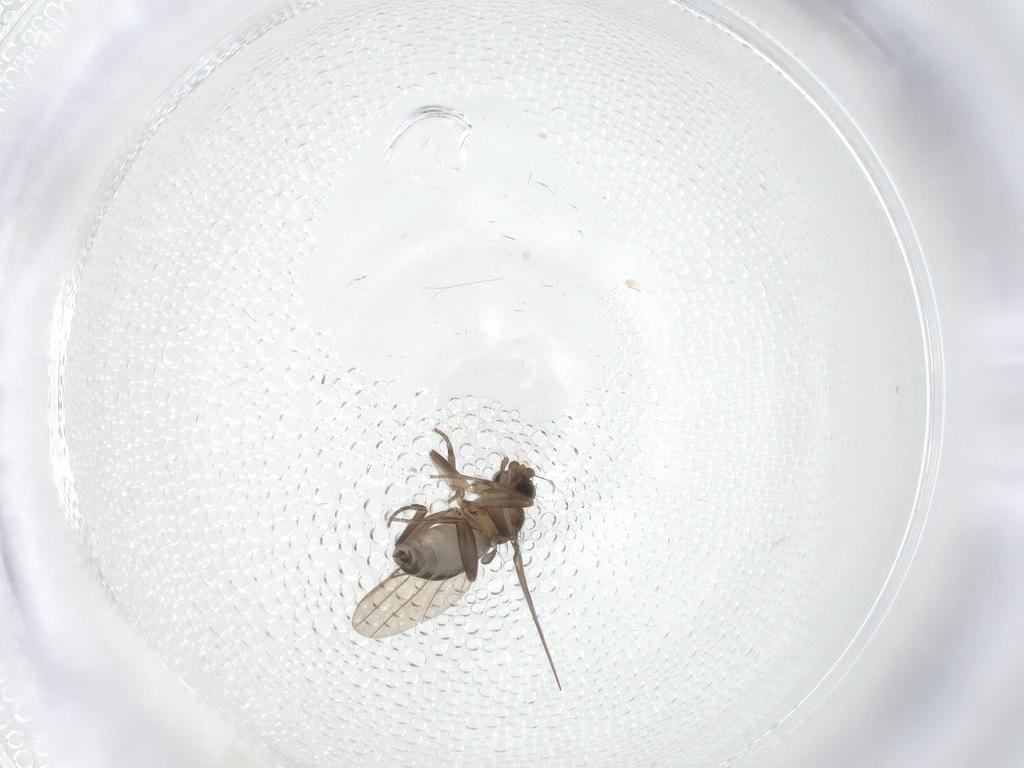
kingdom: Animalia
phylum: Arthropoda
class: Insecta
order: Diptera
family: Phoridae
